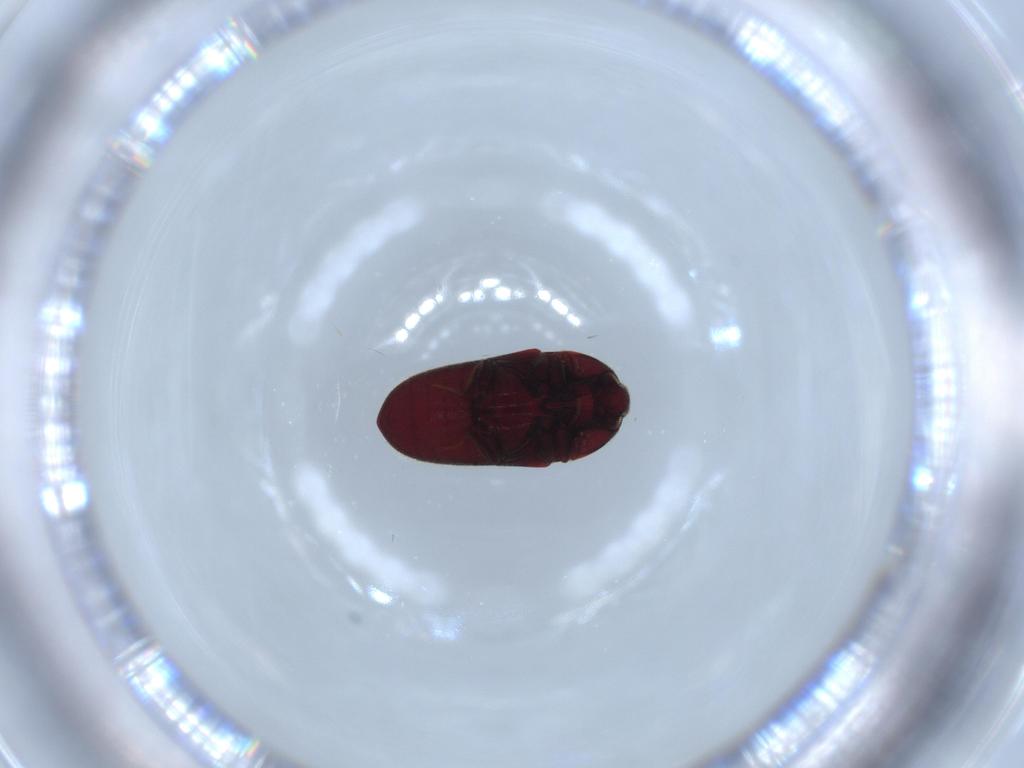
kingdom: Animalia
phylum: Arthropoda
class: Insecta
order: Coleoptera
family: Throscidae
